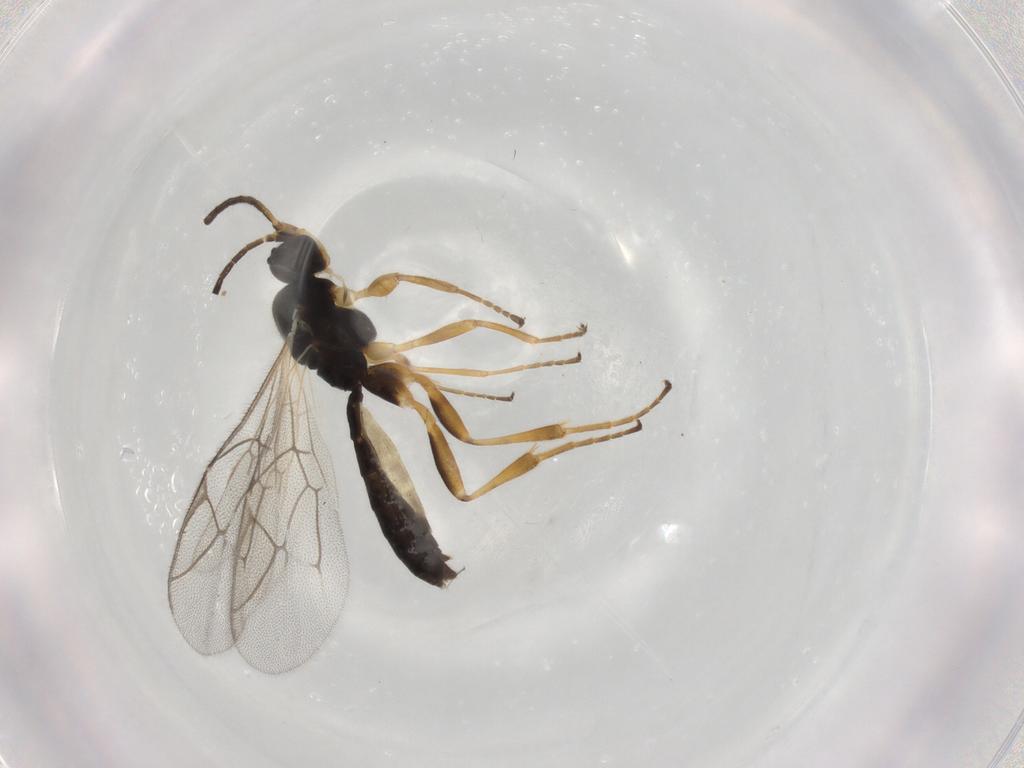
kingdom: Animalia
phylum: Arthropoda
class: Insecta
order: Hymenoptera
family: Ichneumonidae
